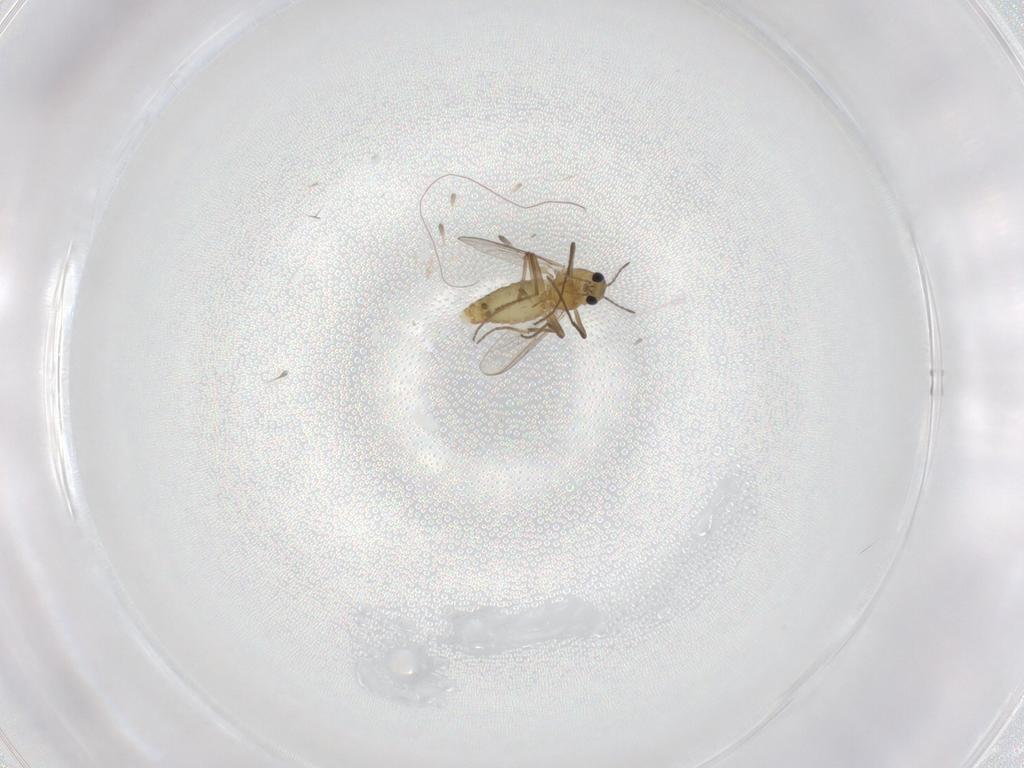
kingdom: Animalia
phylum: Arthropoda
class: Insecta
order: Diptera
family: Chironomidae
